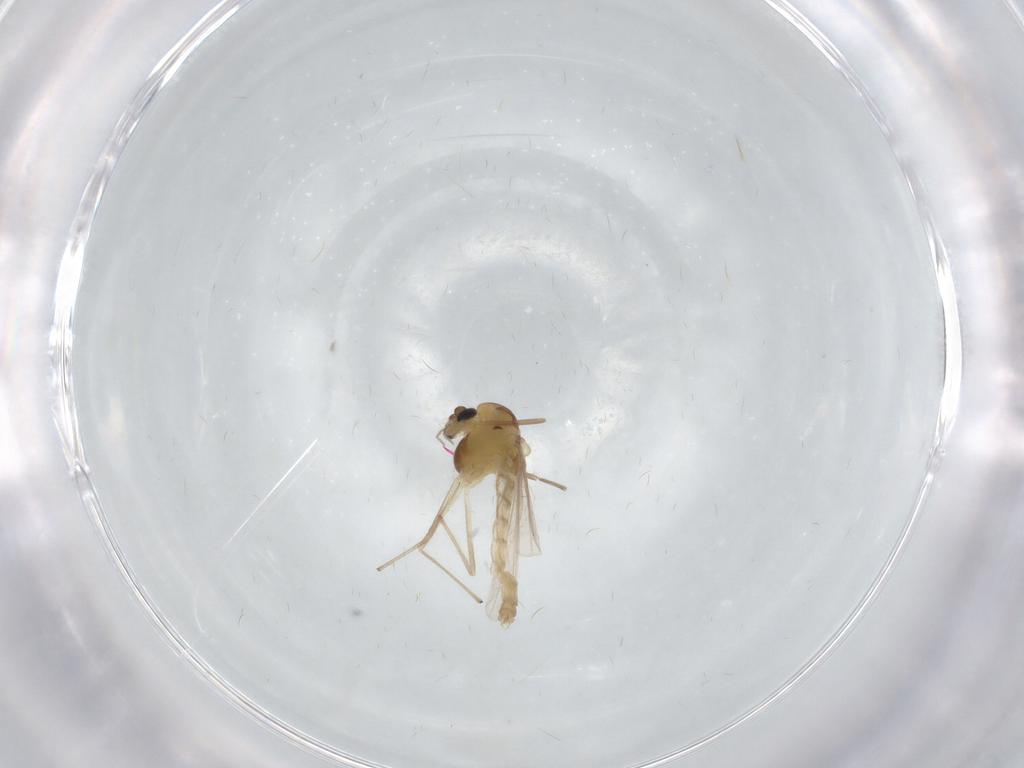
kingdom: Animalia
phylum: Arthropoda
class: Insecta
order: Diptera
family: Chironomidae
